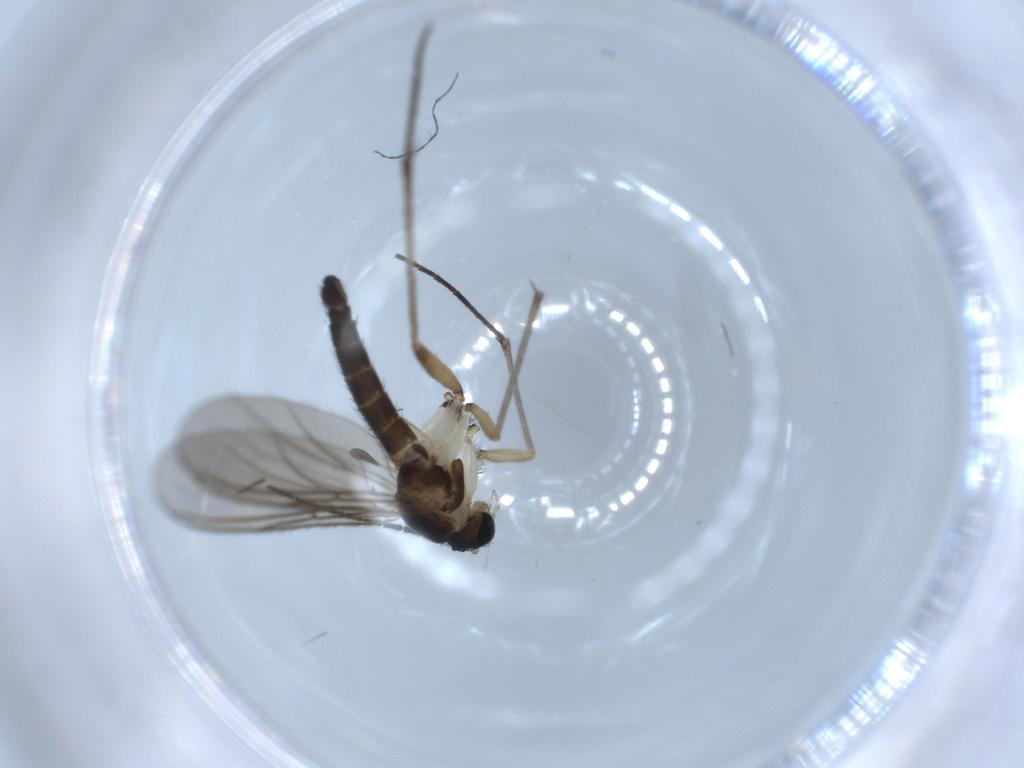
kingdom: Animalia
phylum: Arthropoda
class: Insecta
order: Diptera
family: Sciaridae
